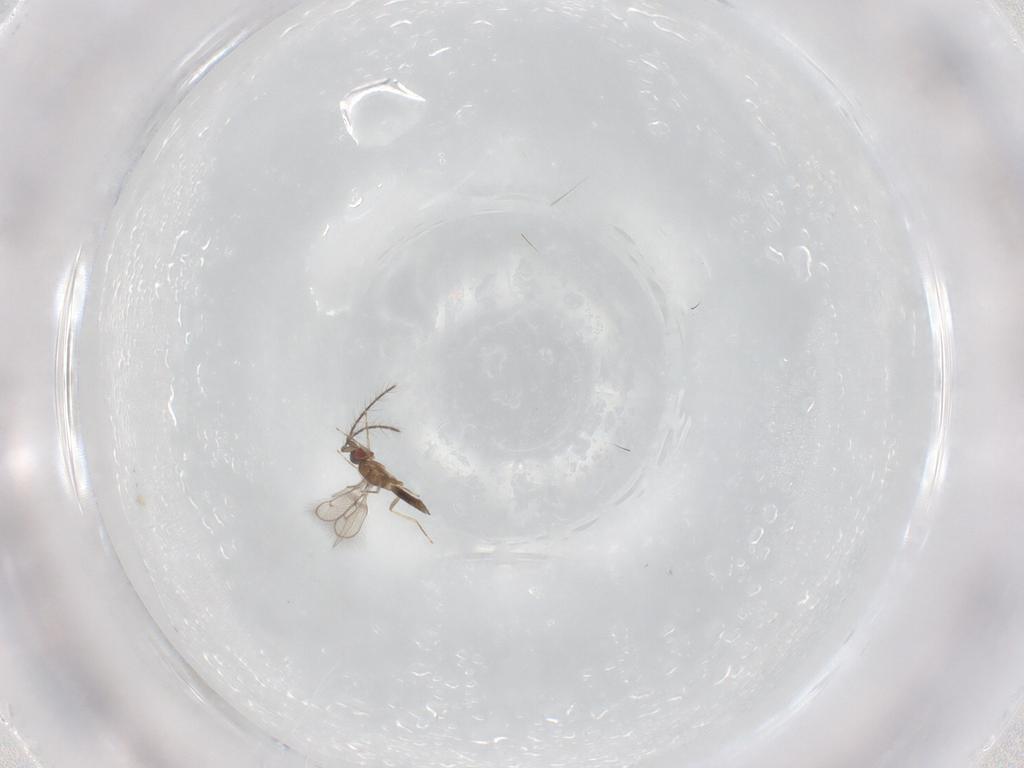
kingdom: Animalia
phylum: Arthropoda
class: Insecta
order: Hymenoptera
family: Eulophidae
